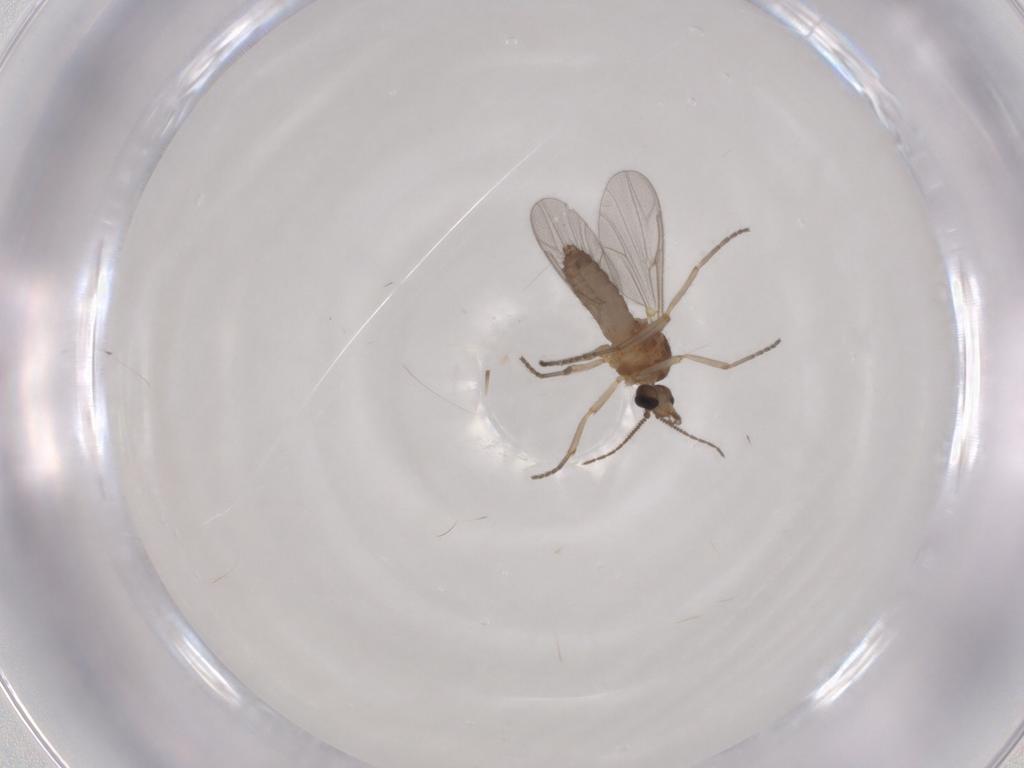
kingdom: Animalia
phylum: Arthropoda
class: Insecta
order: Diptera
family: Ceratopogonidae
